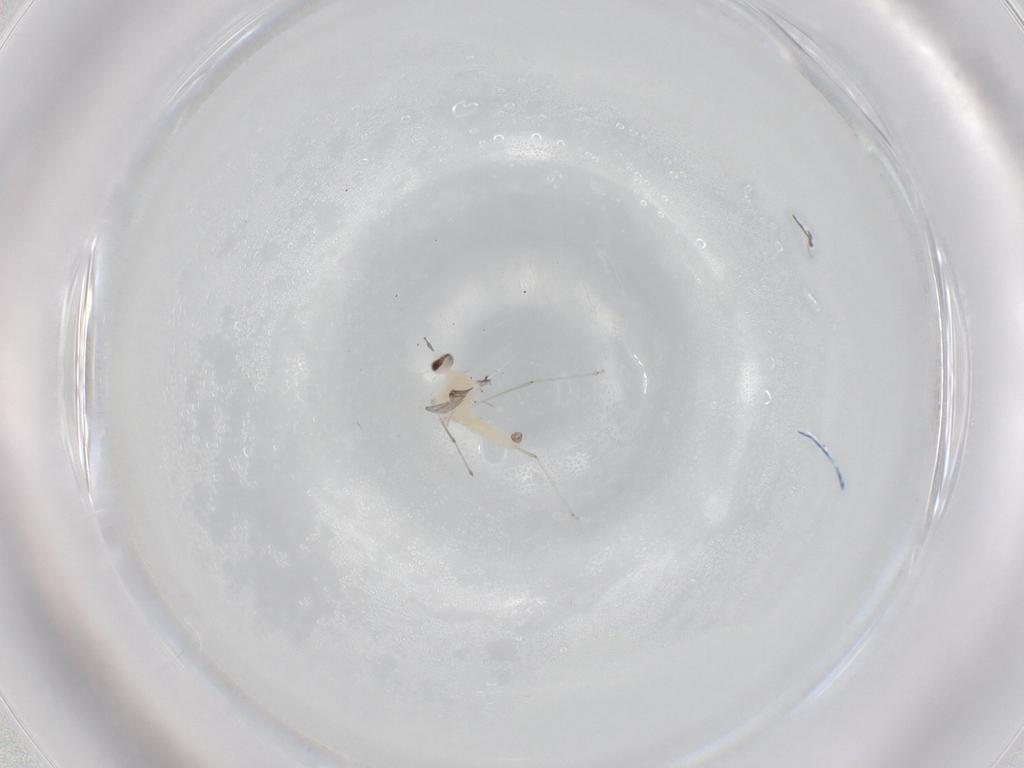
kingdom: Animalia
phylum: Arthropoda
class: Insecta
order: Diptera
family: Cecidomyiidae
